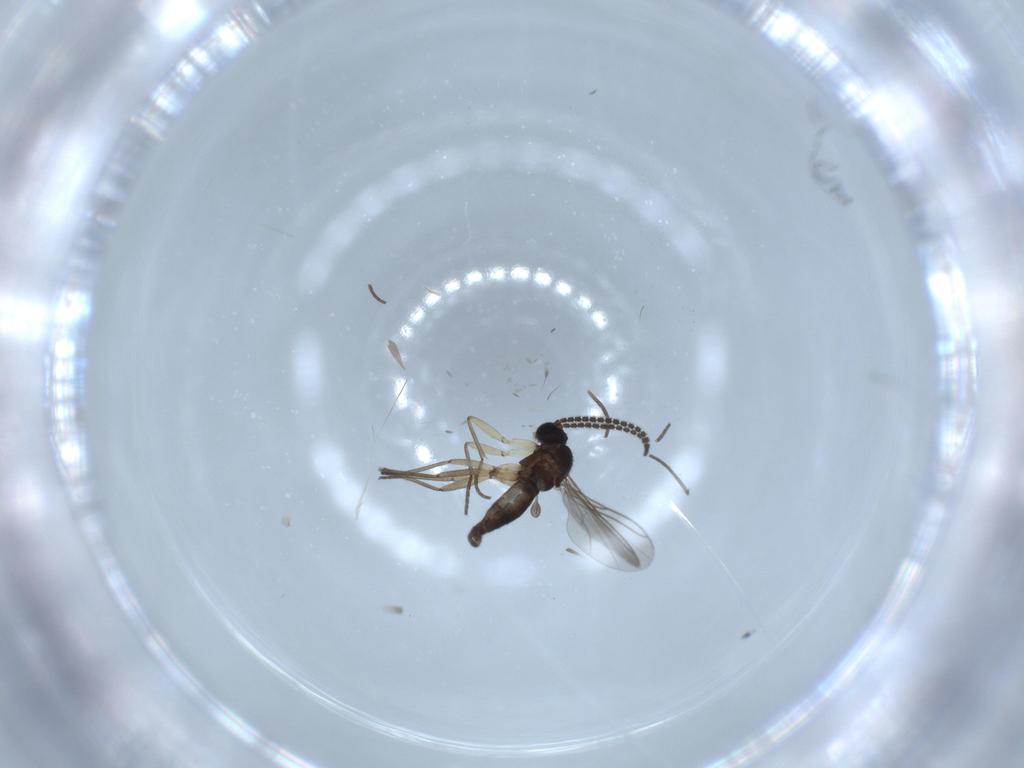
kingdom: Animalia
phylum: Arthropoda
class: Insecta
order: Diptera
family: Sciaridae
